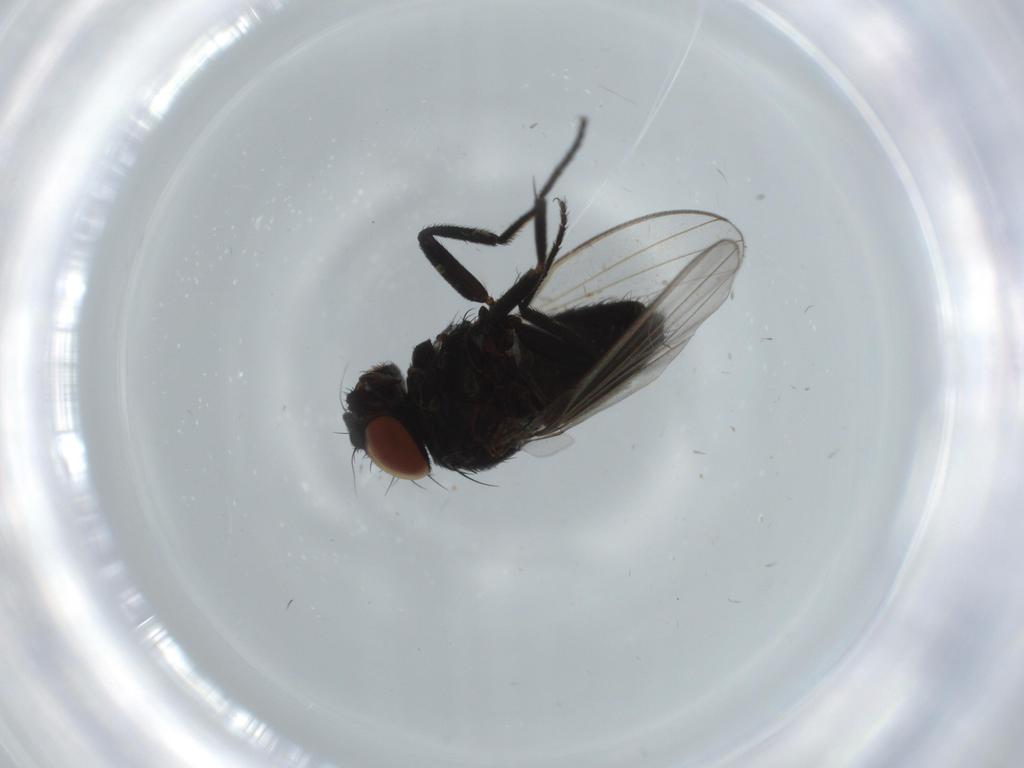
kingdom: Animalia
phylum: Arthropoda
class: Insecta
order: Diptera
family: Milichiidae
